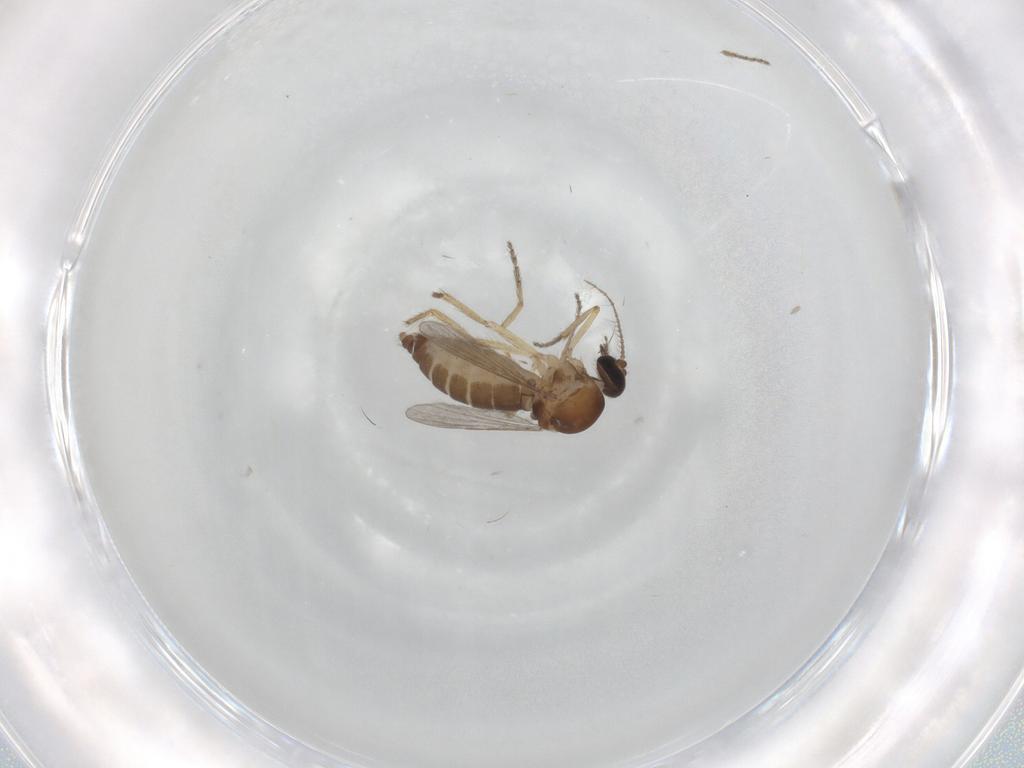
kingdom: Animalia
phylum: Arthropoda
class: Insecta
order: Diptera
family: Ceratopogonidae
